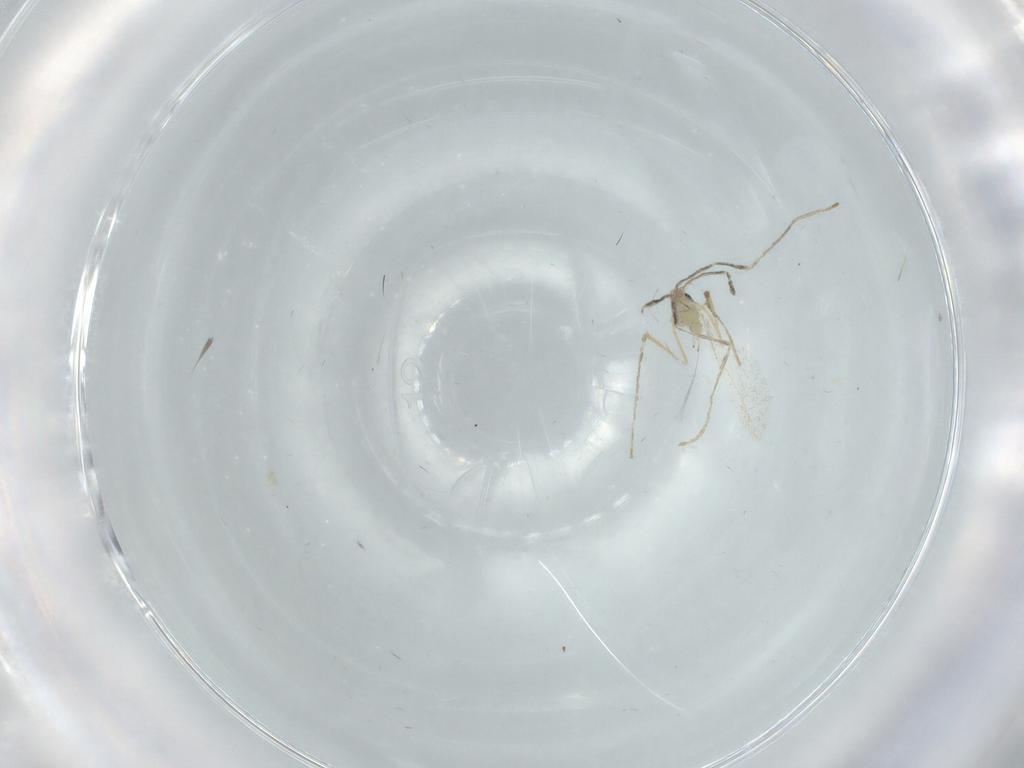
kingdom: Animalia
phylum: Arthropoda
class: Insecta
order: Diptera
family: Cecidomyiidae
